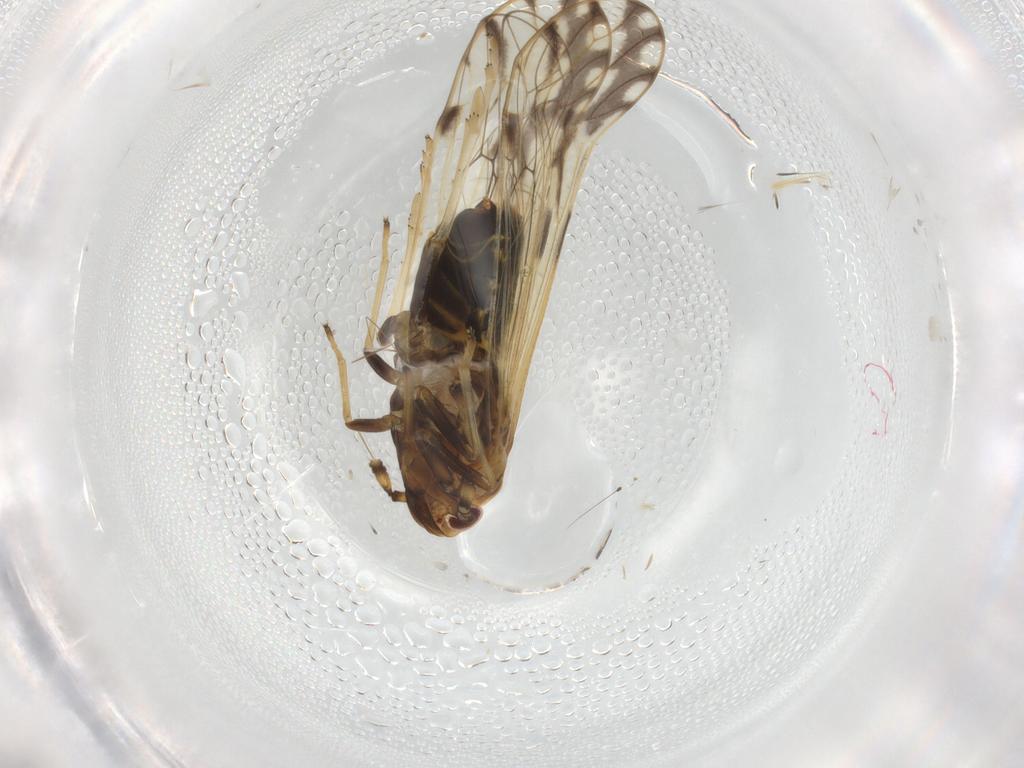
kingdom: Animalia
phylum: Arthropoda
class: Insecta
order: Hemiptera
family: Delphacidae
